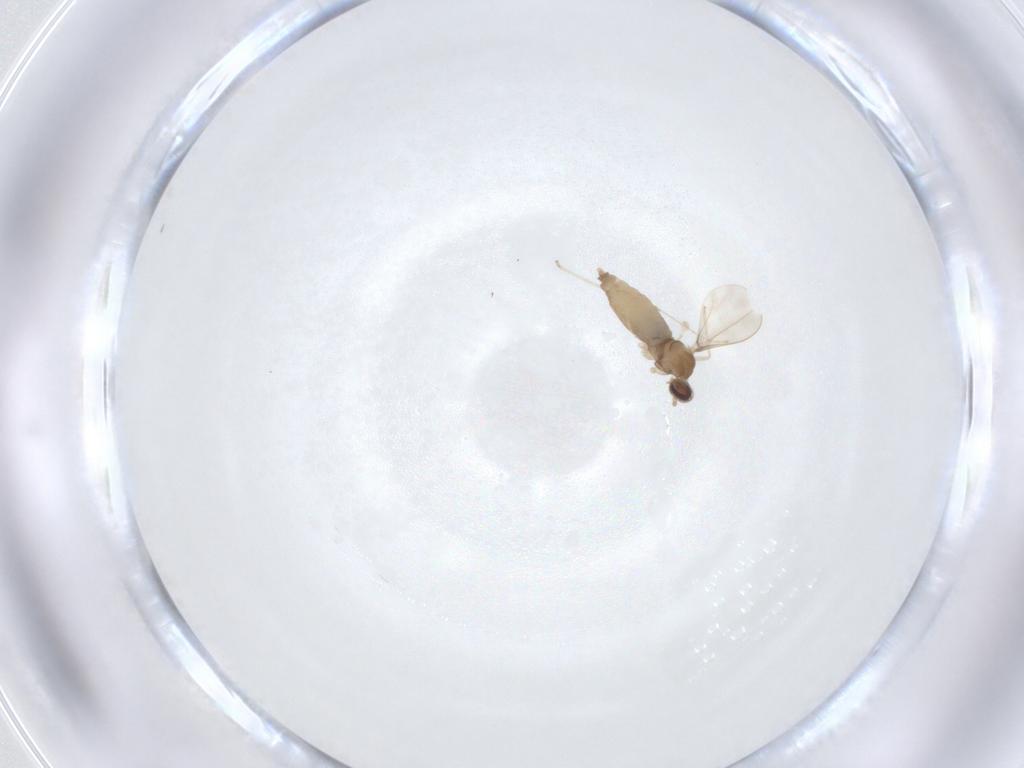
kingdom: Animalia
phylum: Arthropoda
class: Insecta
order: Diptera
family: Cecidomyiidae
